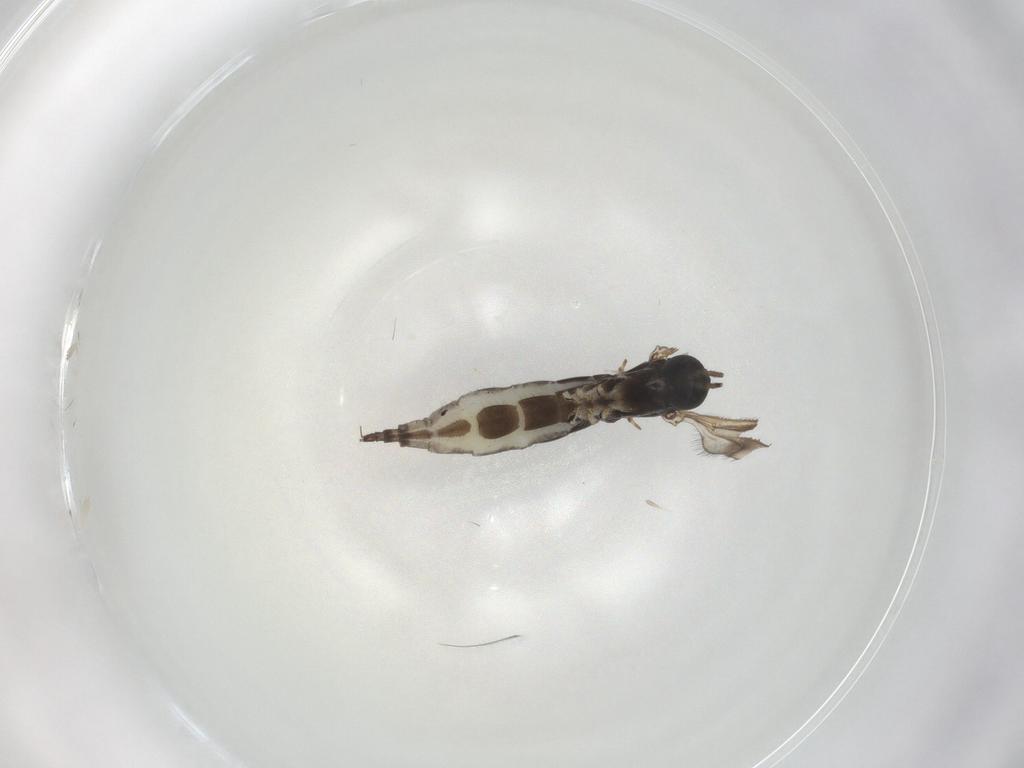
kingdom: Animalia
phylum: Arthropoda
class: Insecta
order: Diptera
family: Sciaridae
